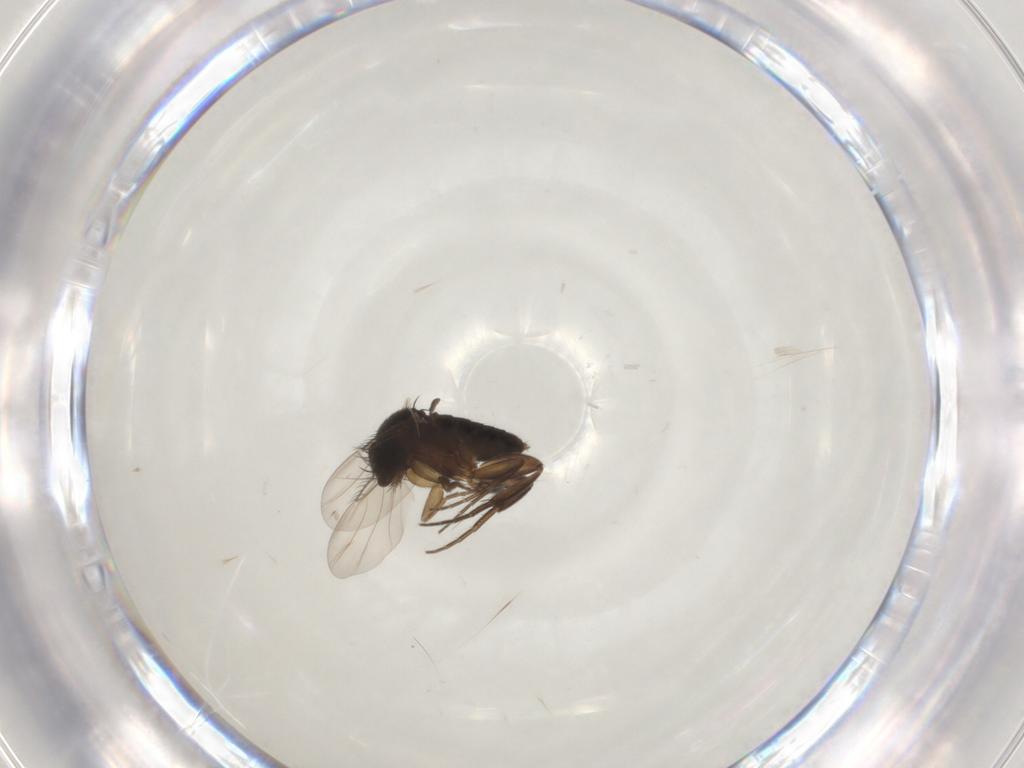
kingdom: Animalia
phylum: Arthropoda
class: Insecta
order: Diptera
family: Phoridae
